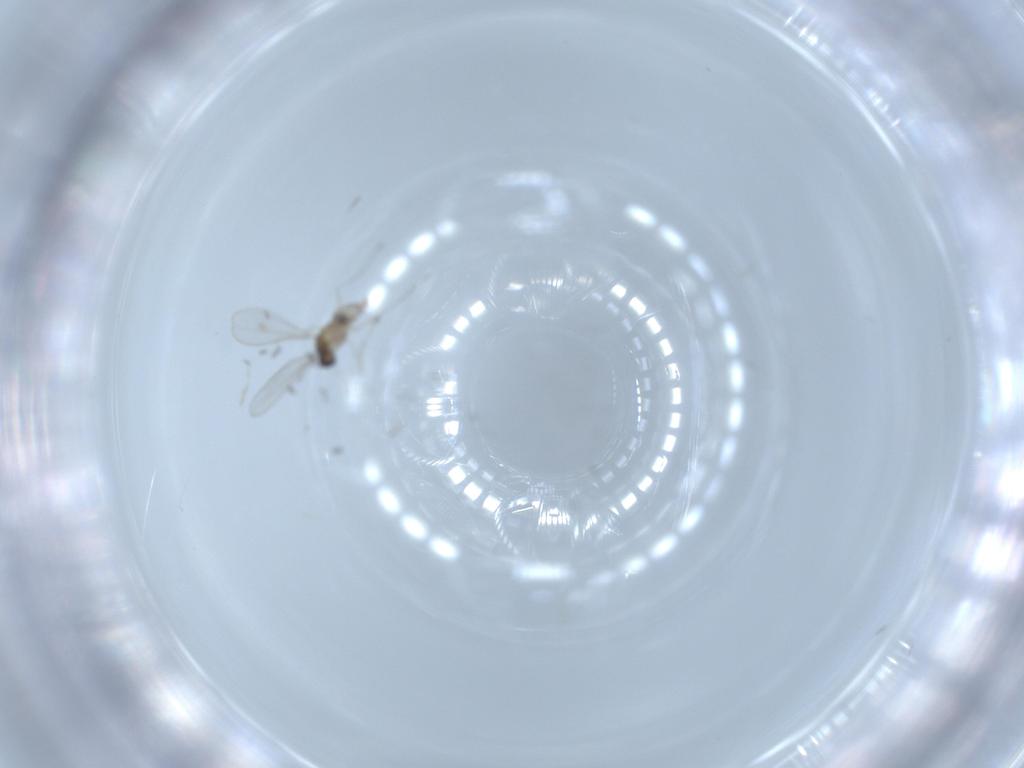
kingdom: Animalia
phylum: Arthropoda
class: Insecta
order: Diptera
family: Cecidomyiidae
